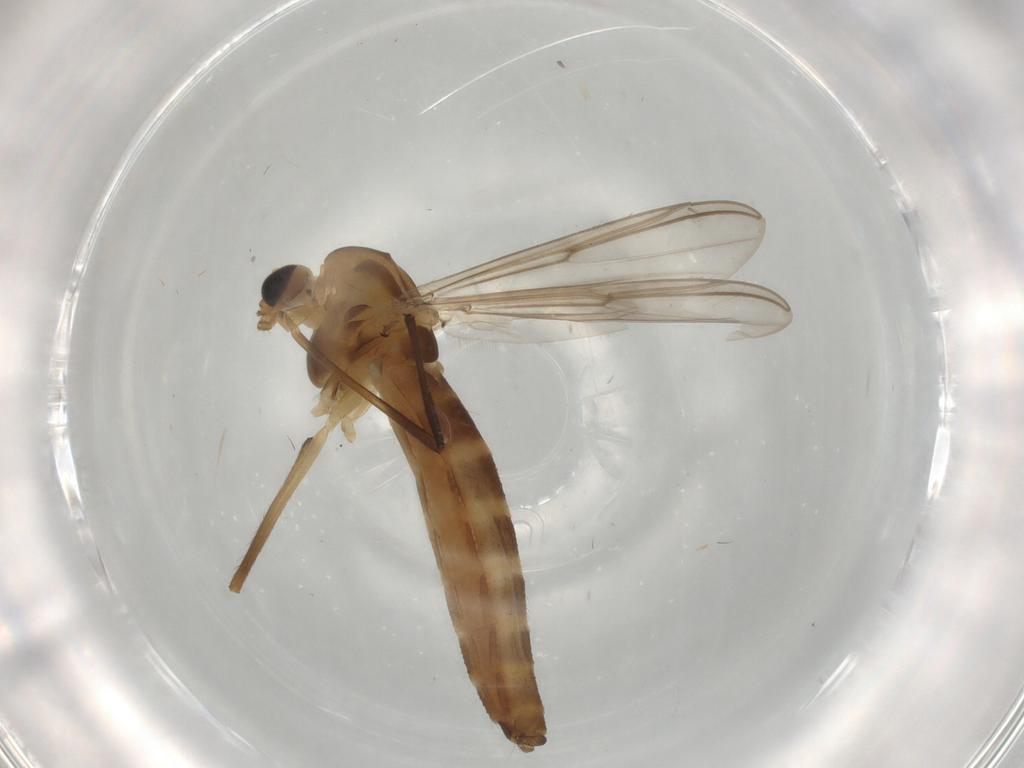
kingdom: Animalia
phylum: Arthropoda
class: Insecta
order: Diptera
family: Chironomidae
